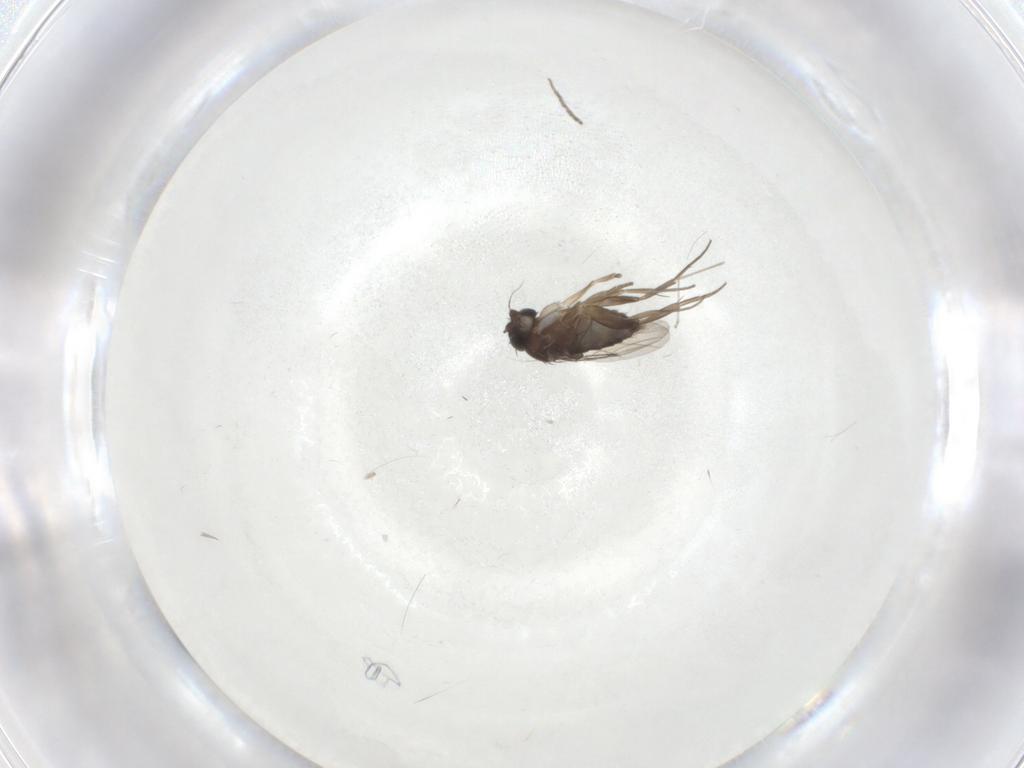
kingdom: Animalia
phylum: Arthropoda
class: Insecta
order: Diptera
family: Phoridae
